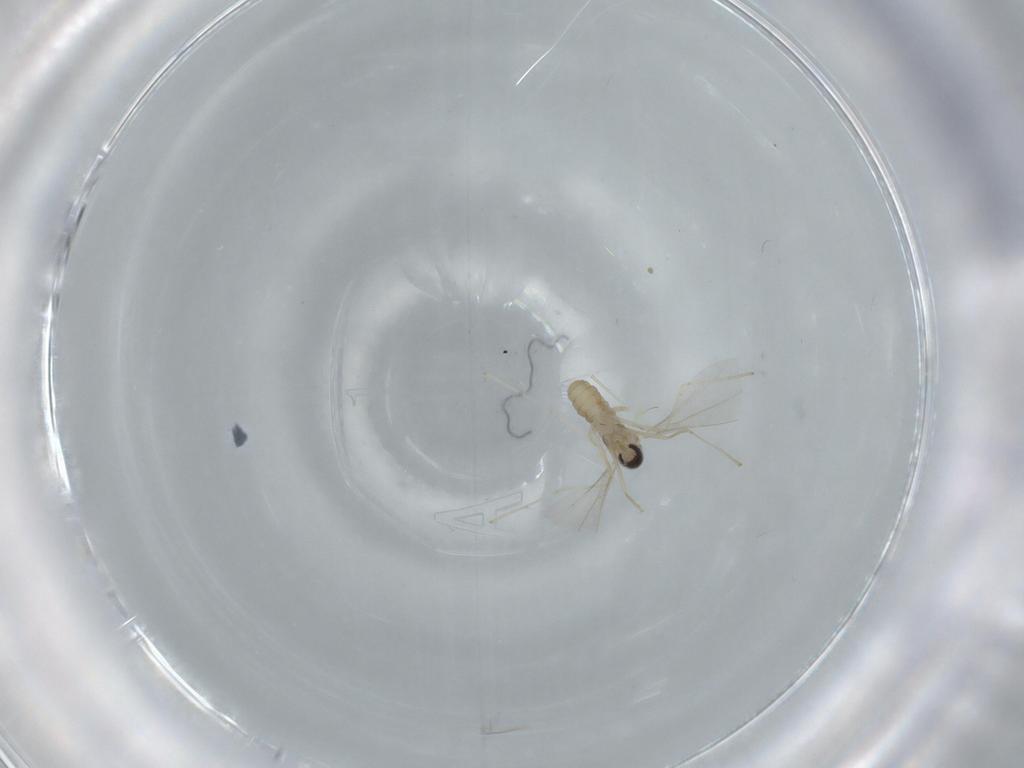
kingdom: Animalia
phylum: Arthropoda
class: Insecta
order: Diptera
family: Cecidomyiidae
